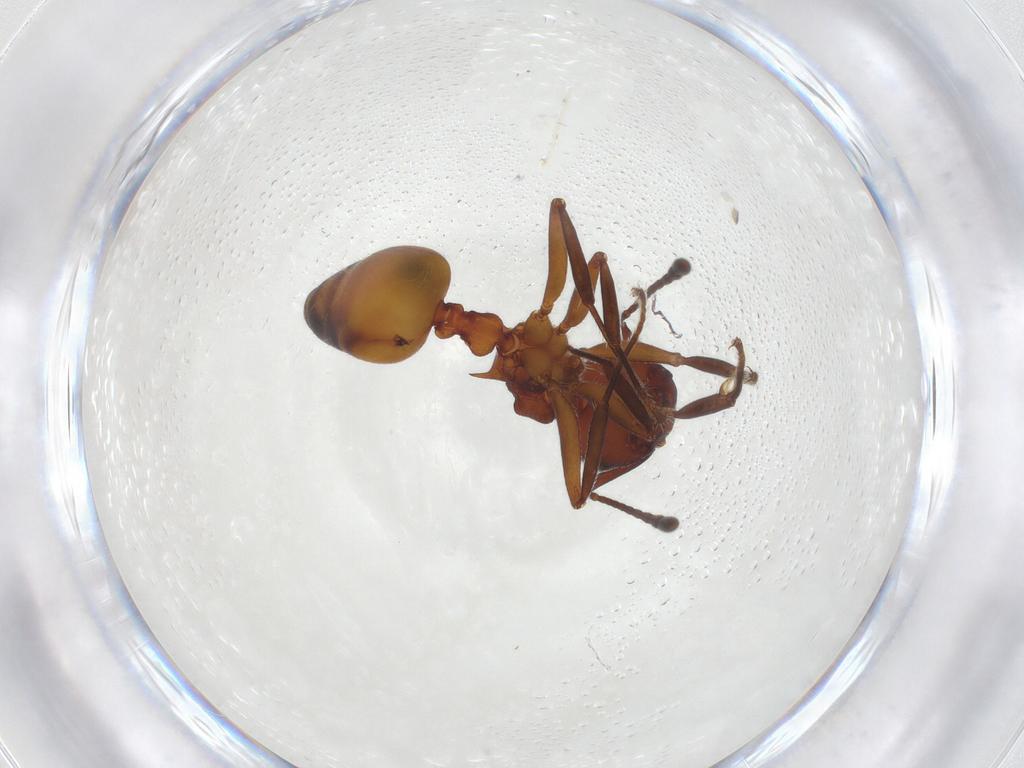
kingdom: Animalia
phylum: Arthropoda
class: Insecta
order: Hymenoptera
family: Formicidae
